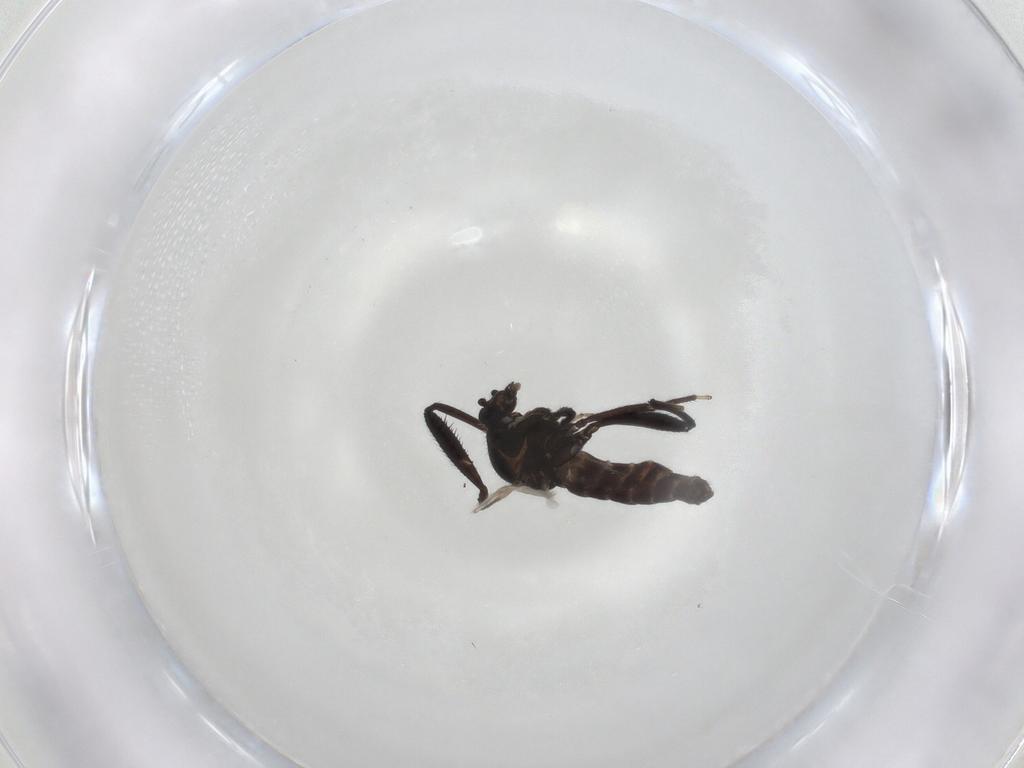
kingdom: Animalia
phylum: Arthropoda
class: Insecta
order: Diptera
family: Ceratopogonidae
